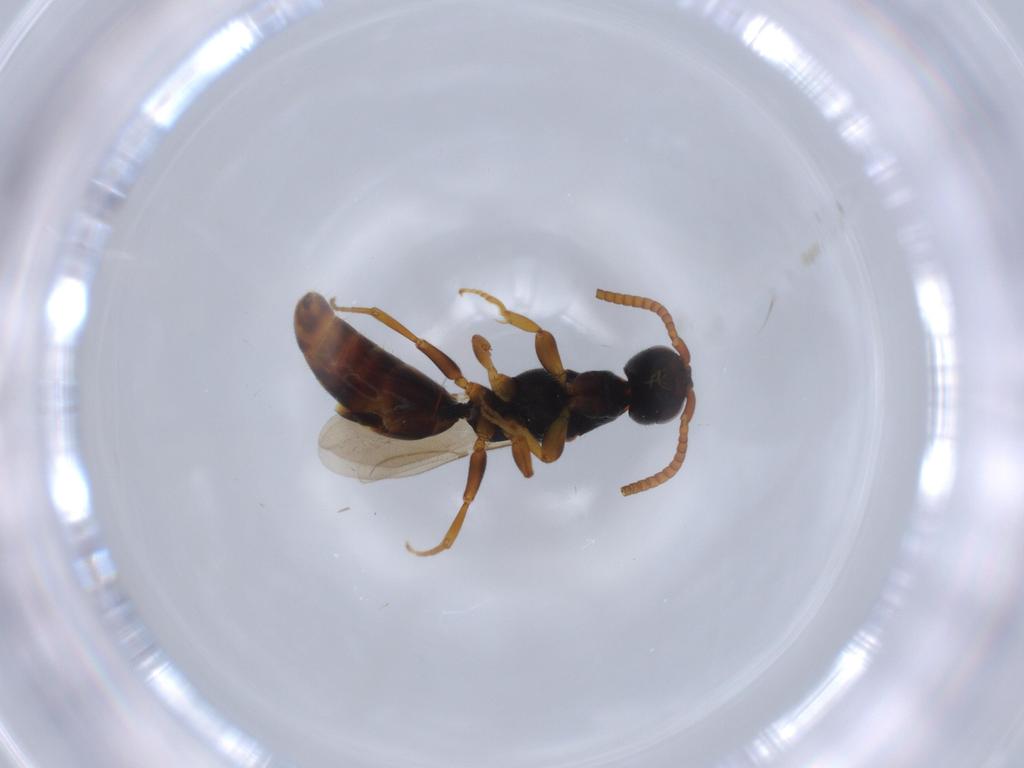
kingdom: Animalia
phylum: Arthropoda
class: Insecta
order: Hymenoptera
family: Bethylidae
